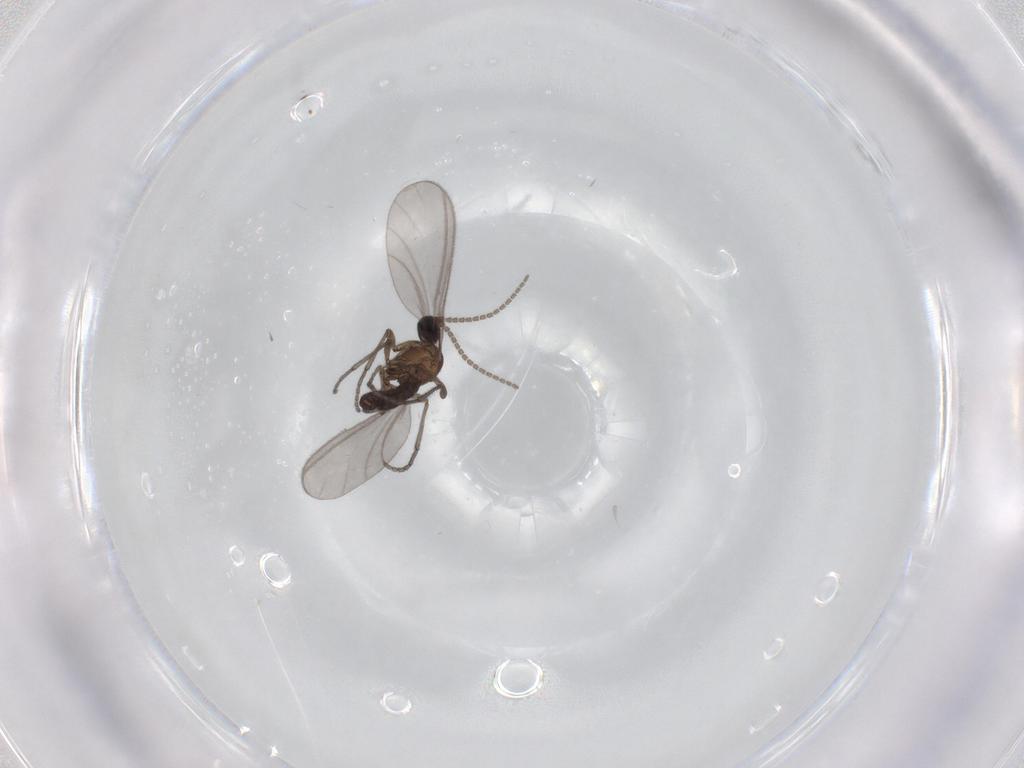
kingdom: Animalia
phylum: Arthropoda
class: Insecta
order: Diptera
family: Sciaridae
